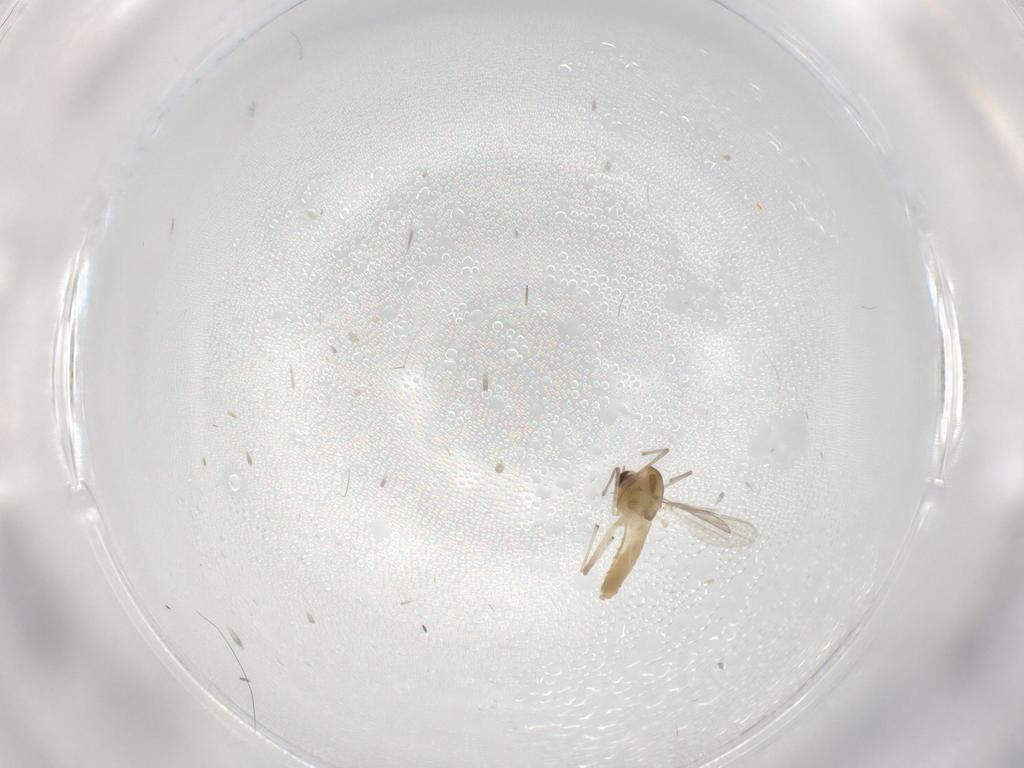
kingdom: Animalia
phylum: Arthropoda
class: Insecta
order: Diptera
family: Chironomidae
